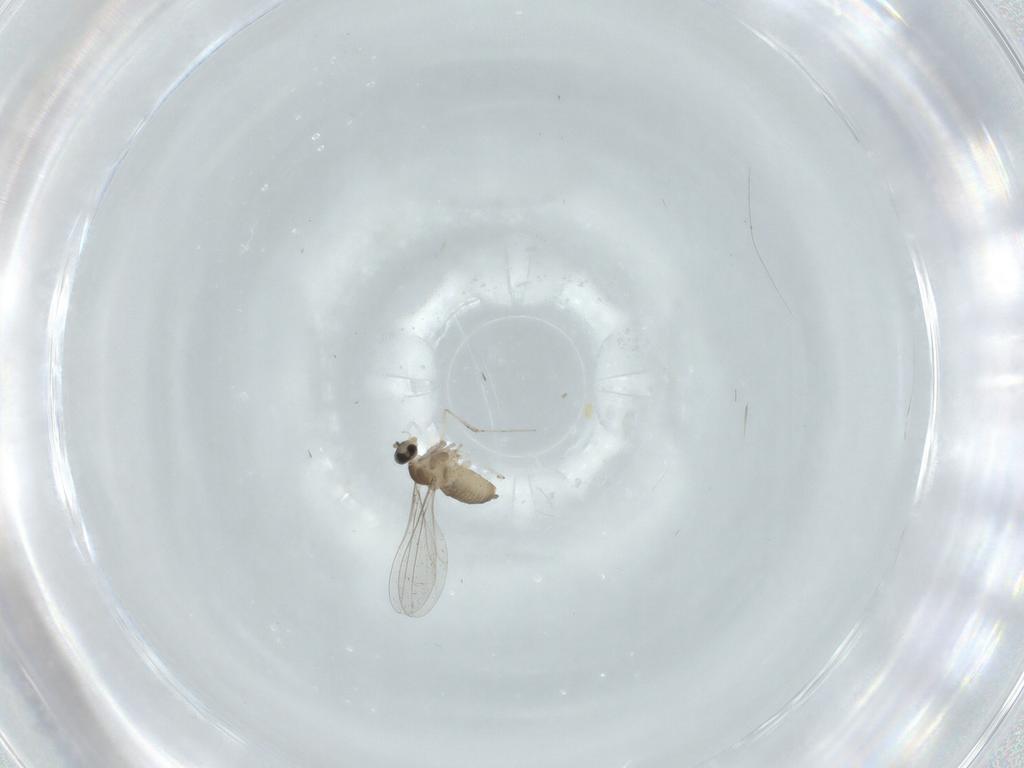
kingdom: Animalia
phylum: Arthropoda
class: Insecta
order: Diptera
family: Cecidomyiidae
